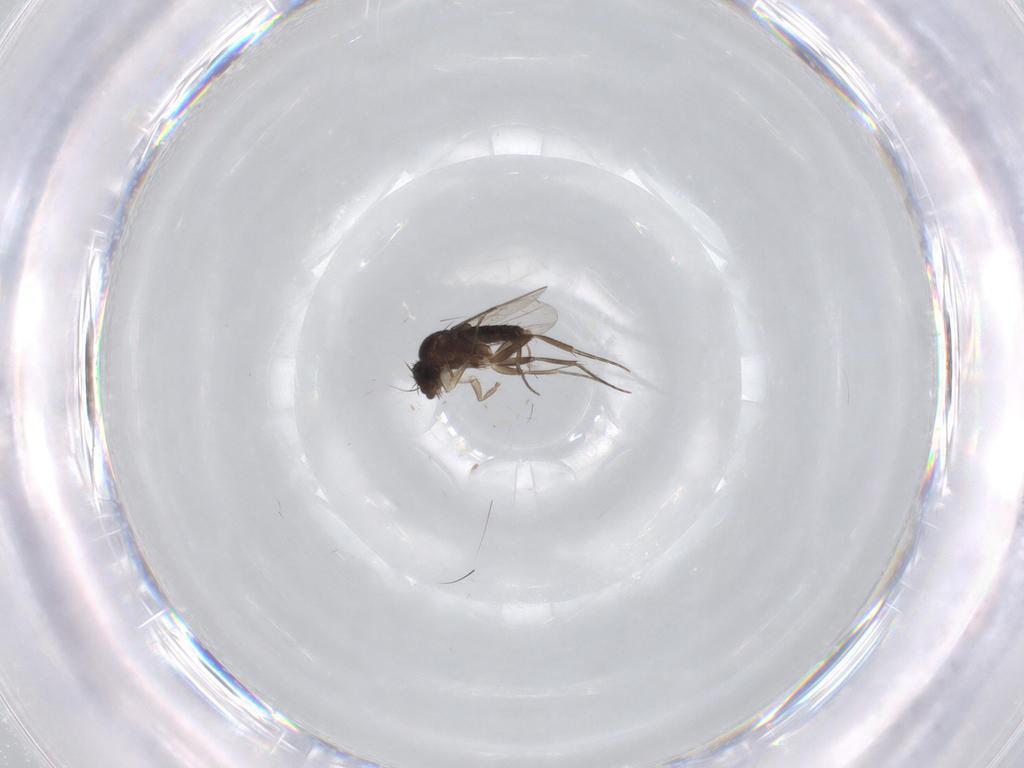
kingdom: Animalia
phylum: Arthropoda
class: Insecta
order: Diptera
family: Phoridae
